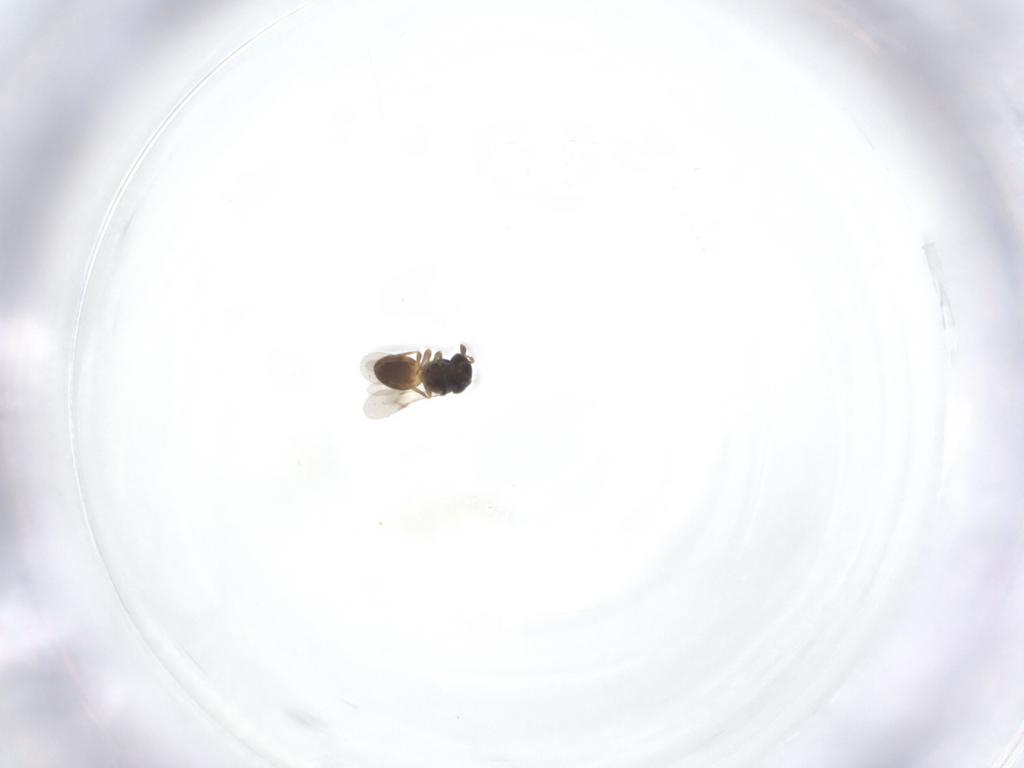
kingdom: Animalia
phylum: Arthropoda
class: Insecta
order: Hymenoptera
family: Scelionidae
